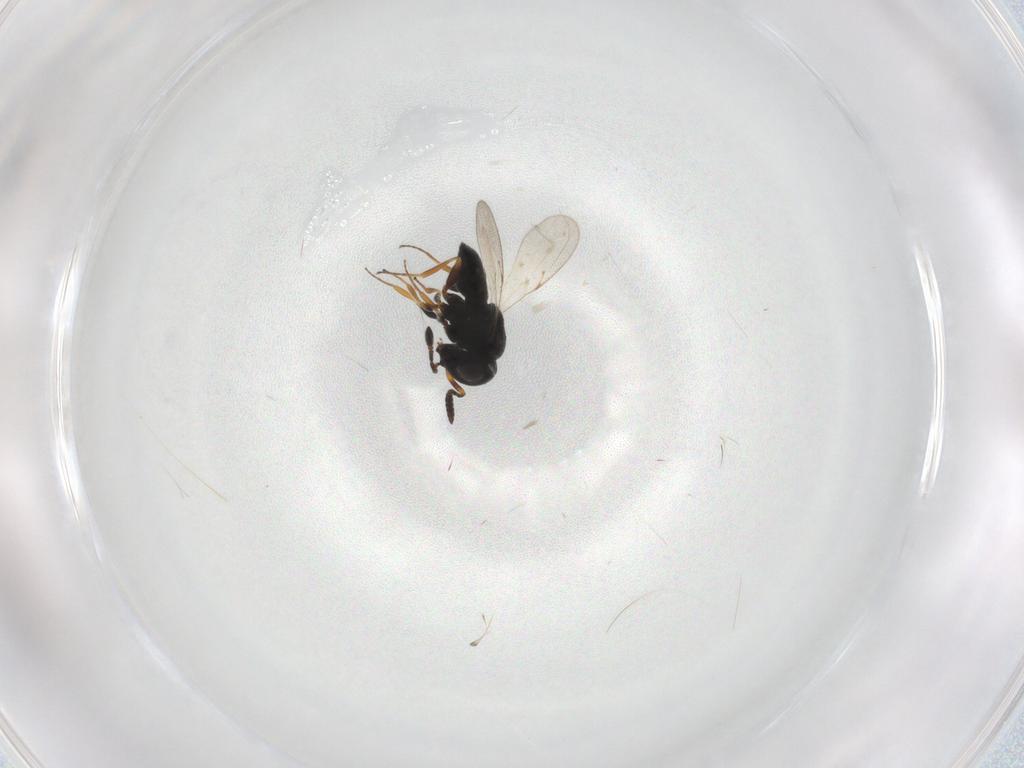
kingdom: Animalia
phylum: Arthropoda
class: Insecta
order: Hymenoptera
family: Scelionidae
